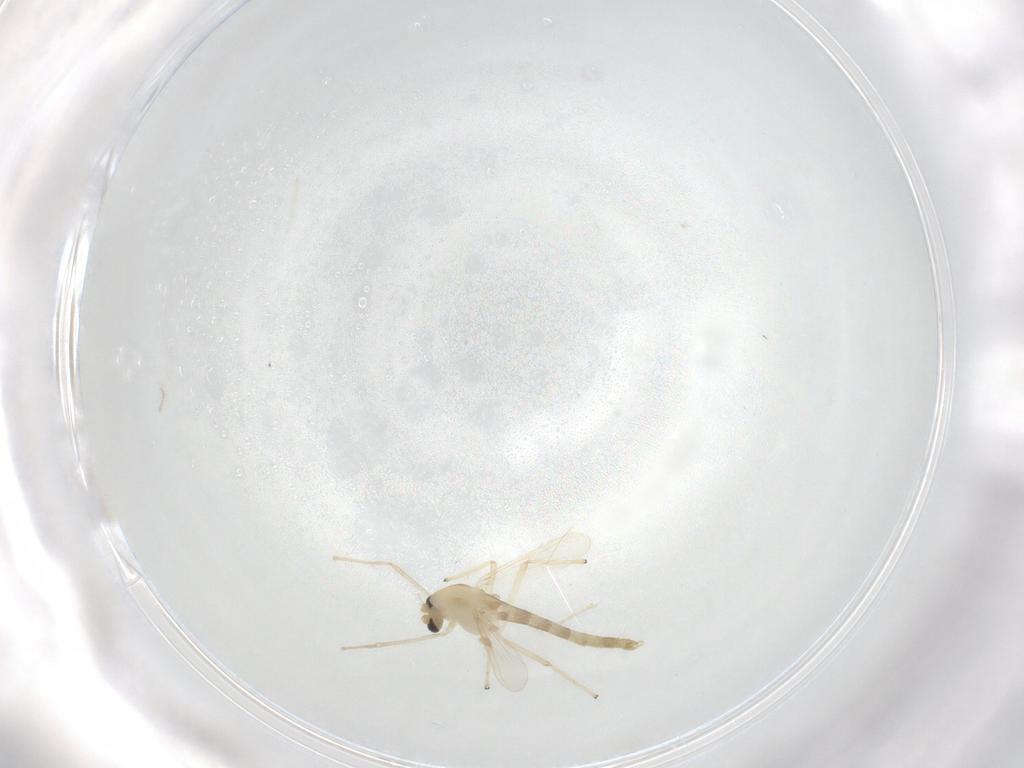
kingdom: Animalia
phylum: Arthropoda
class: Insecta
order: Diptera
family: Chironomidae
